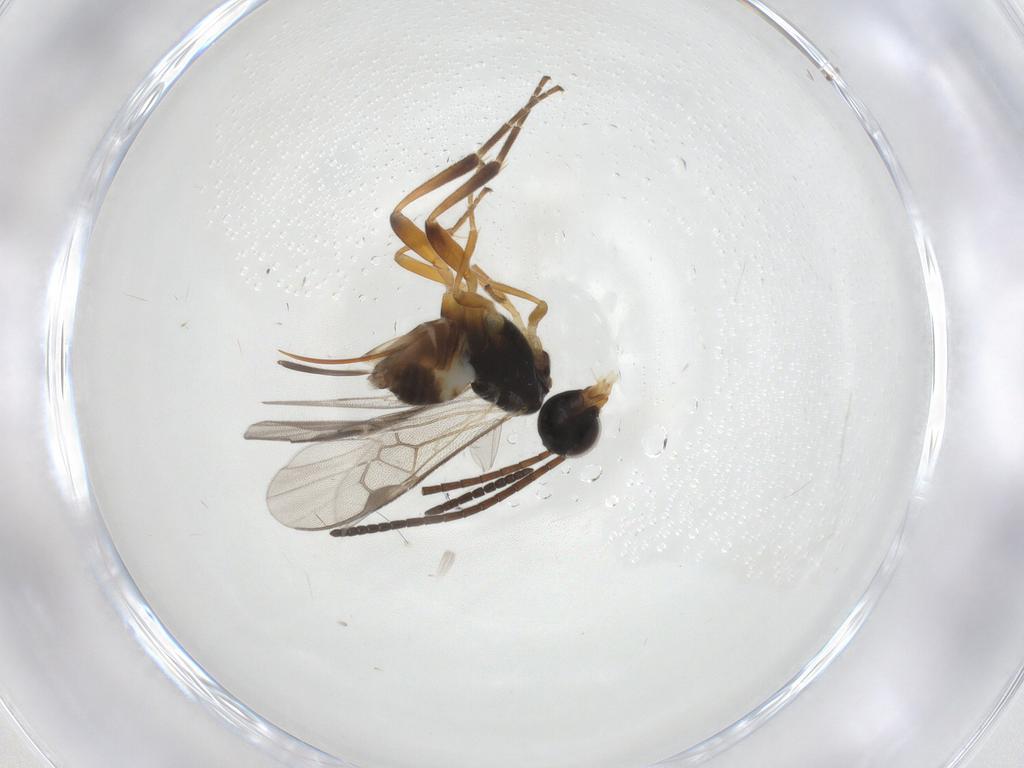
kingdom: Animalia
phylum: Arthropoda
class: Insecta
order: Hymenoptera
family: Braconidae
